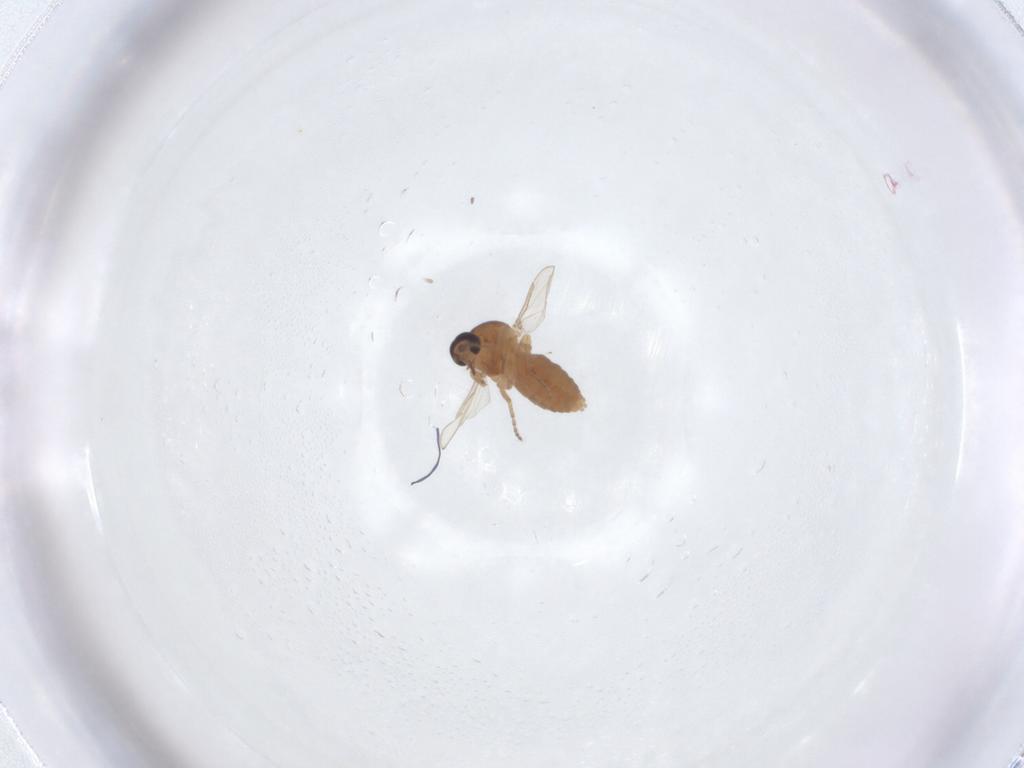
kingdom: Animalia
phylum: Arthropoda
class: Insecta
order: Diptera
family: Ceratopogonidae
